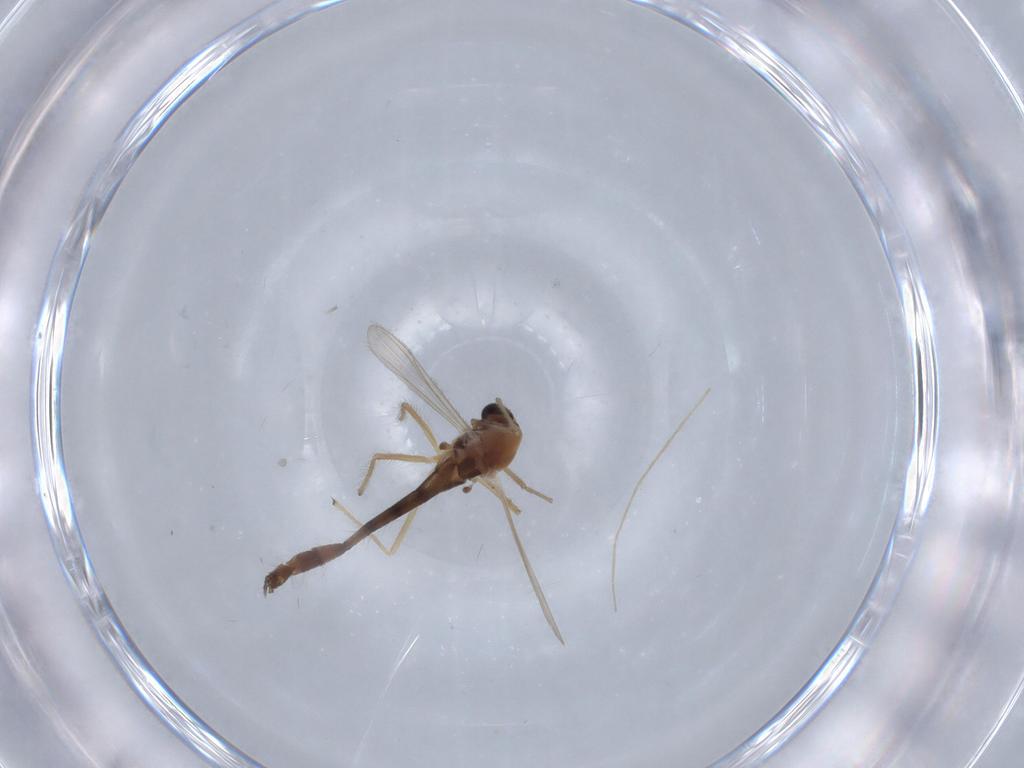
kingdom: Animalia
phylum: Arthropoda
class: Insecta
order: Diptera
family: Chironomidae
